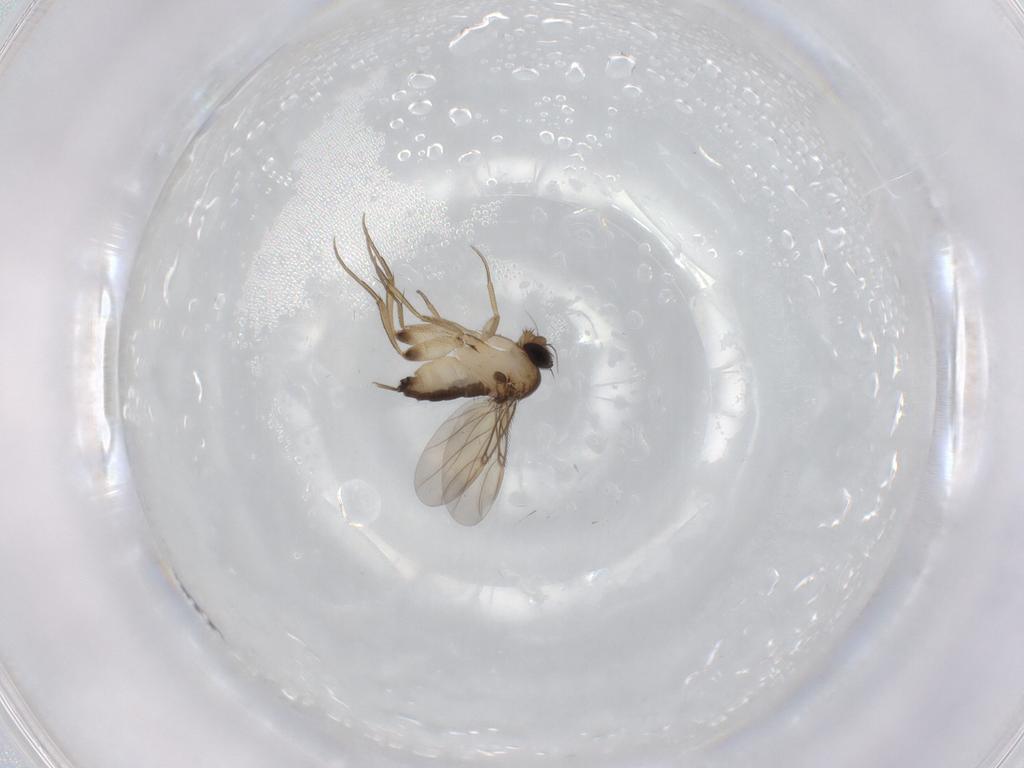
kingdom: Animalia
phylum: Arthropoda
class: Insecta
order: Diptera
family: Phoridae
